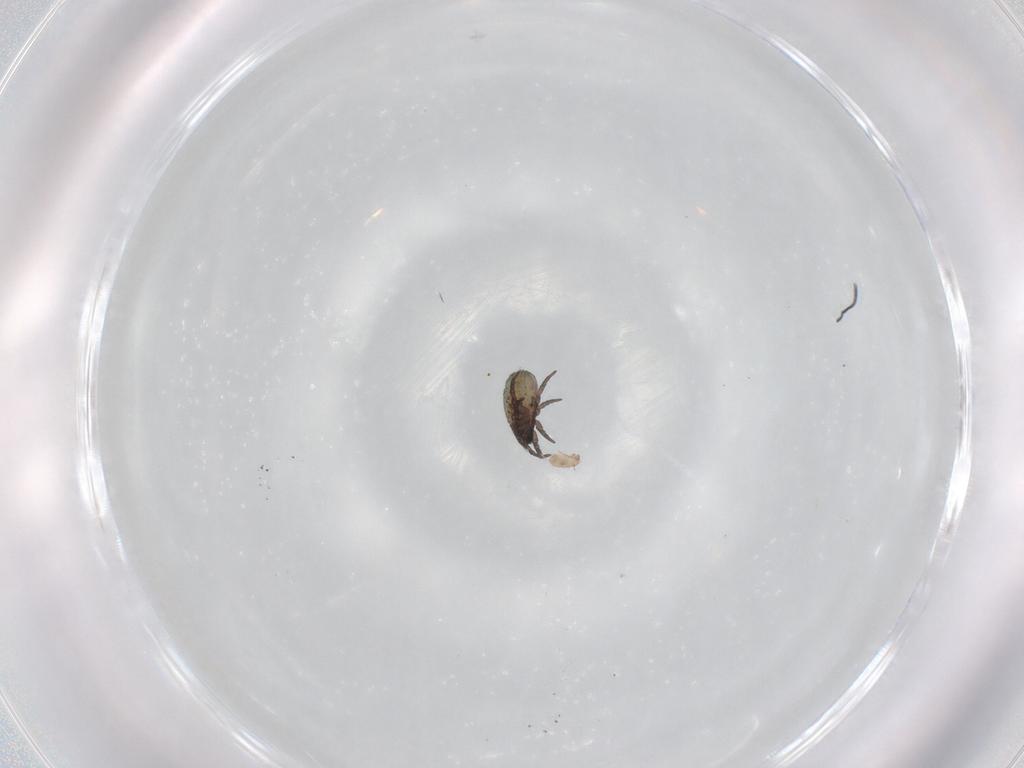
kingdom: Animalia
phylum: Arthropoda
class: Arachnida
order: Sarcoptiformes
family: Crotoniidae
